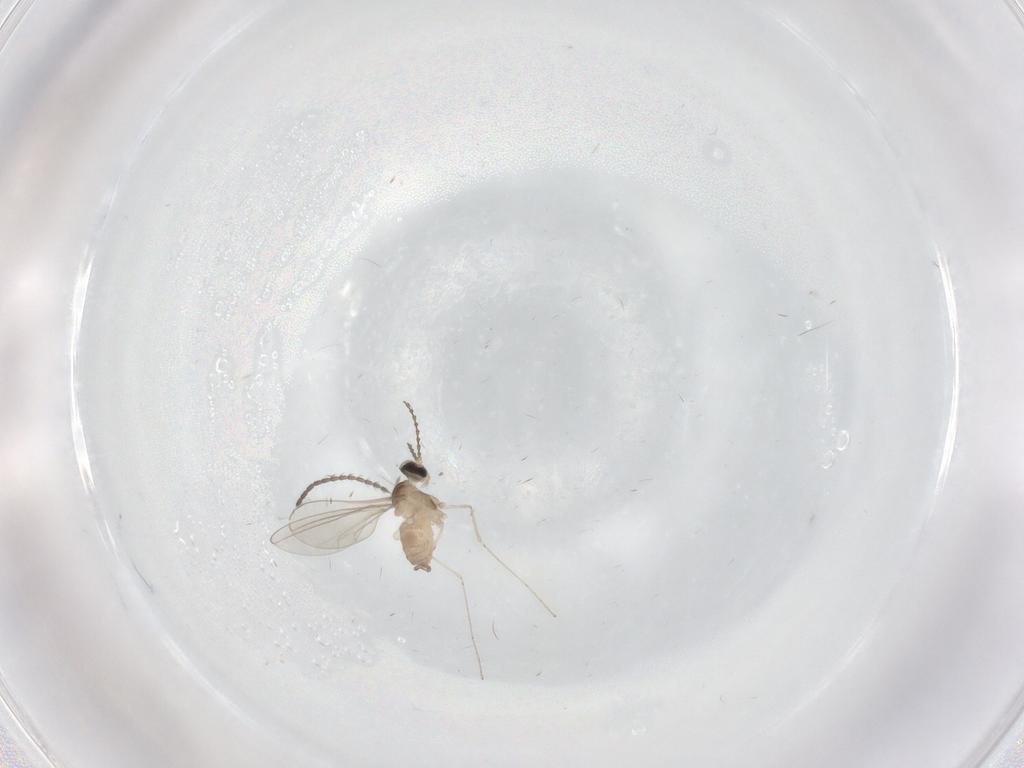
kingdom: Animalia
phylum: Arthropoda
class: Insecta
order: Diptera
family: Cecidomyiidae
